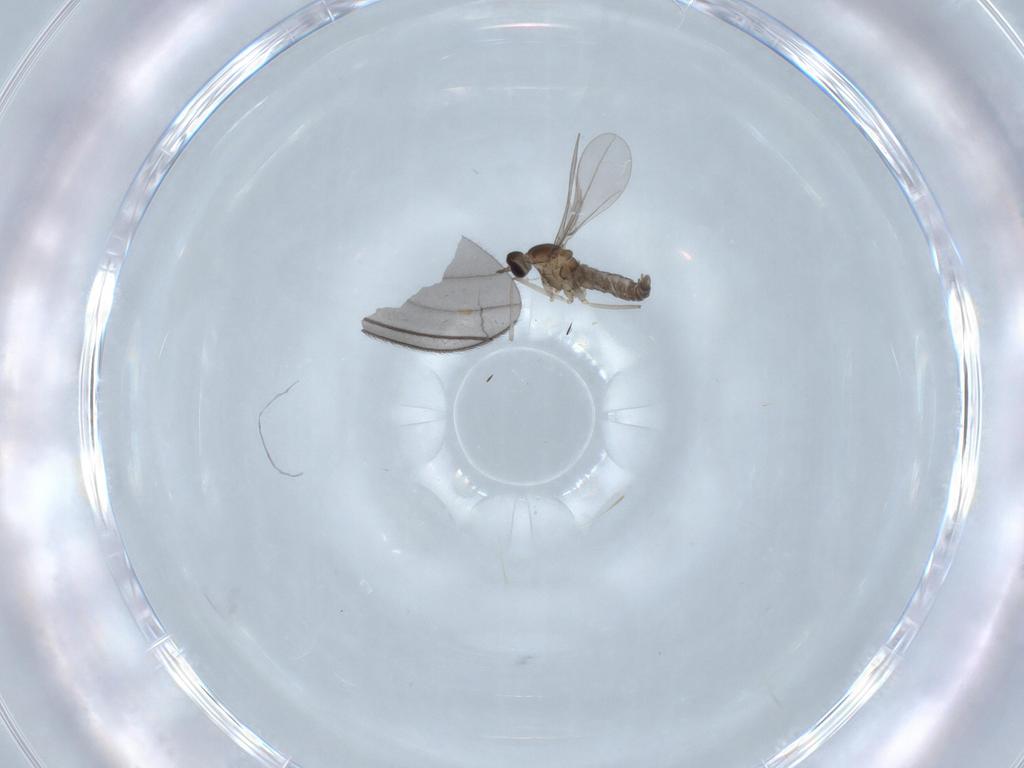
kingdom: Animalia
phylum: Arthropoda
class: Insecta
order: Diptera
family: Cecidomyiidae
